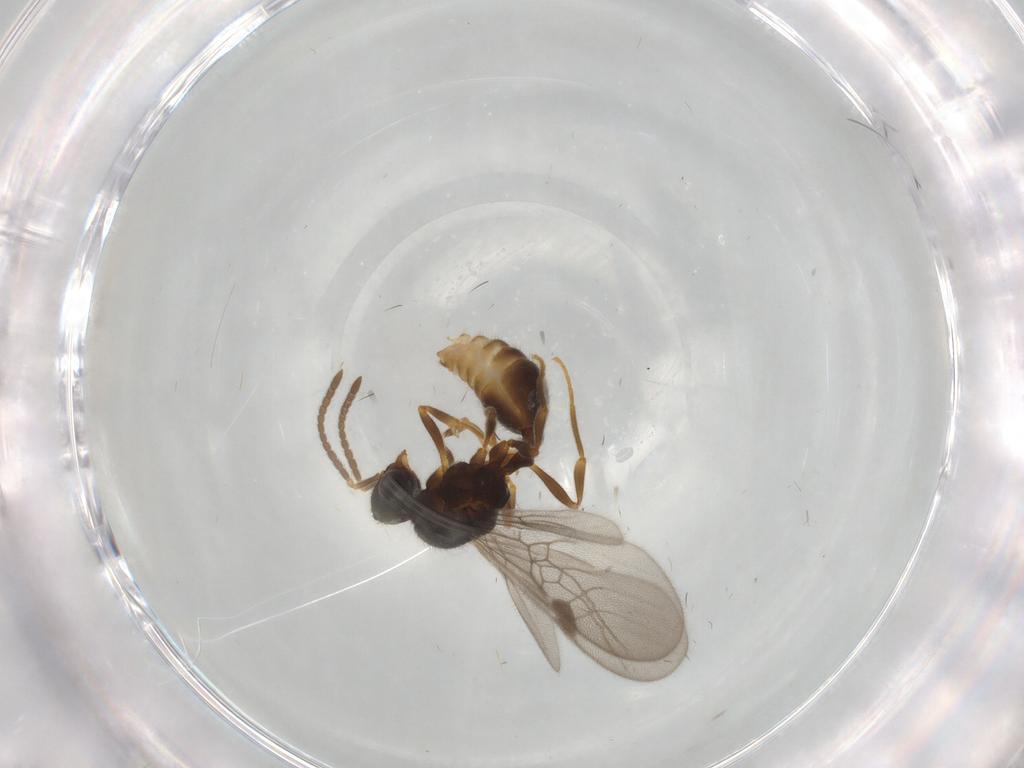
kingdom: Animalia
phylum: Arthropoda
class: Insecta
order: Hymenoptera
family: Formicidae
